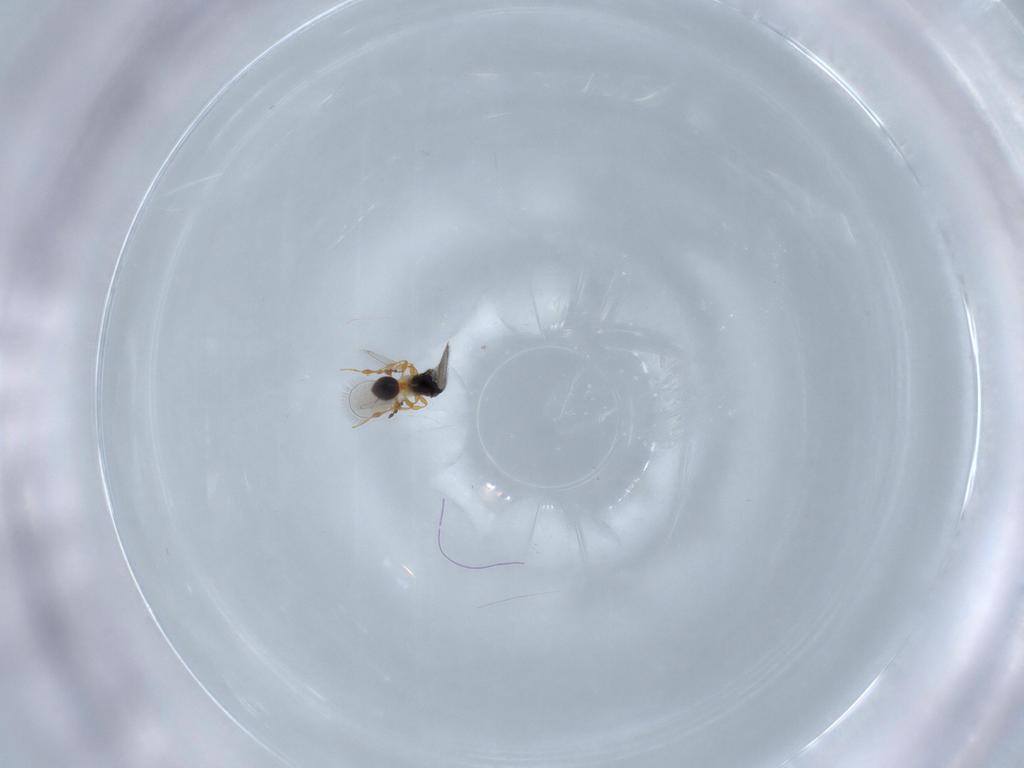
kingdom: Animalia
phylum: Arthropoda
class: Insecta
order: Hymenoptera
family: Platygastridae
